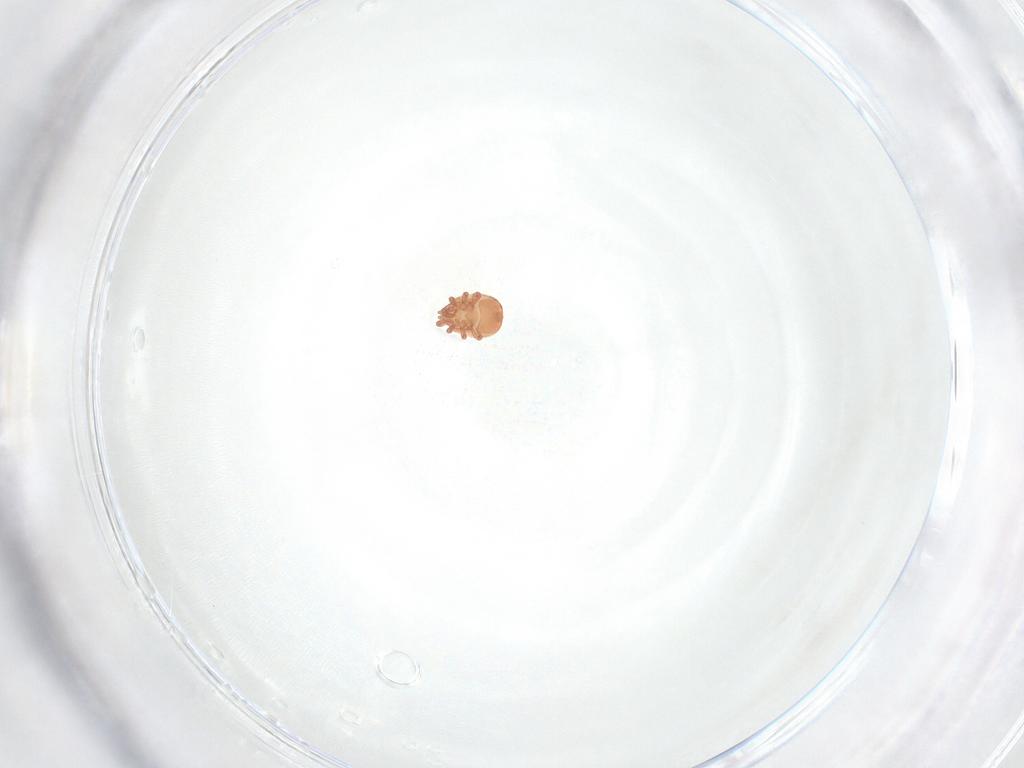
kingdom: Animalia
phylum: Arthropoda
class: Arachnida
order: Mesostigmata
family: Zerconidae
